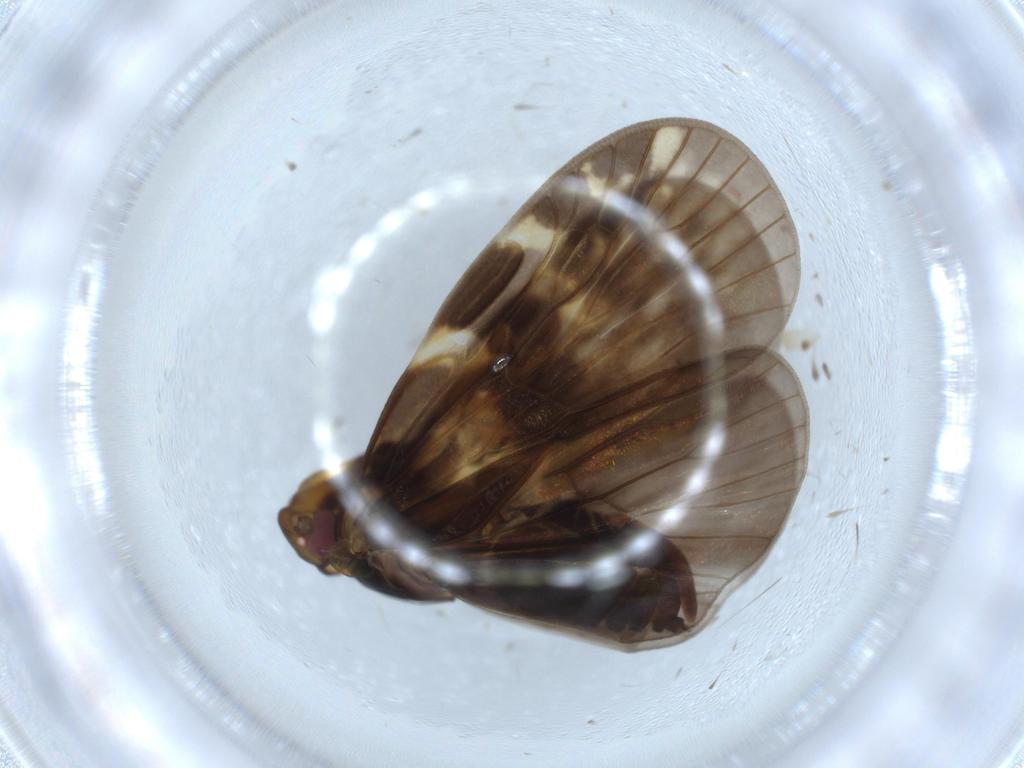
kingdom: Animalia
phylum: Arthropoda
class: Insecta
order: Hemiptera
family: Cixiidae
